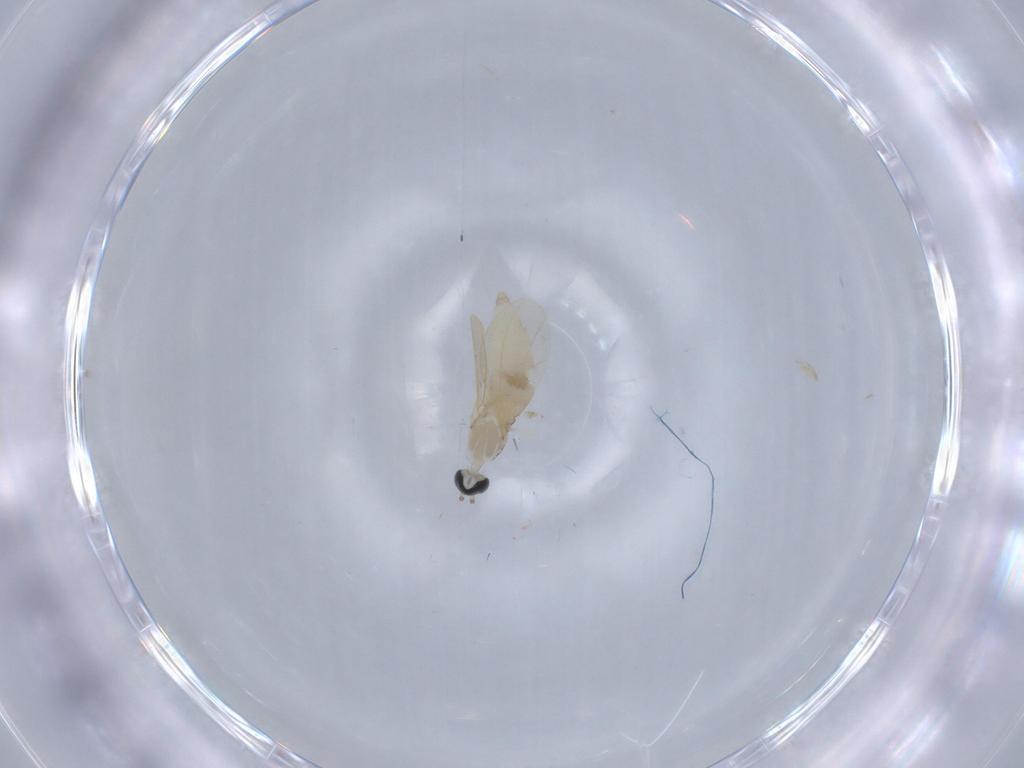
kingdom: Animalia
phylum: Arthropoda
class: Insecta
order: Diptera
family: Cecidomyiidae
